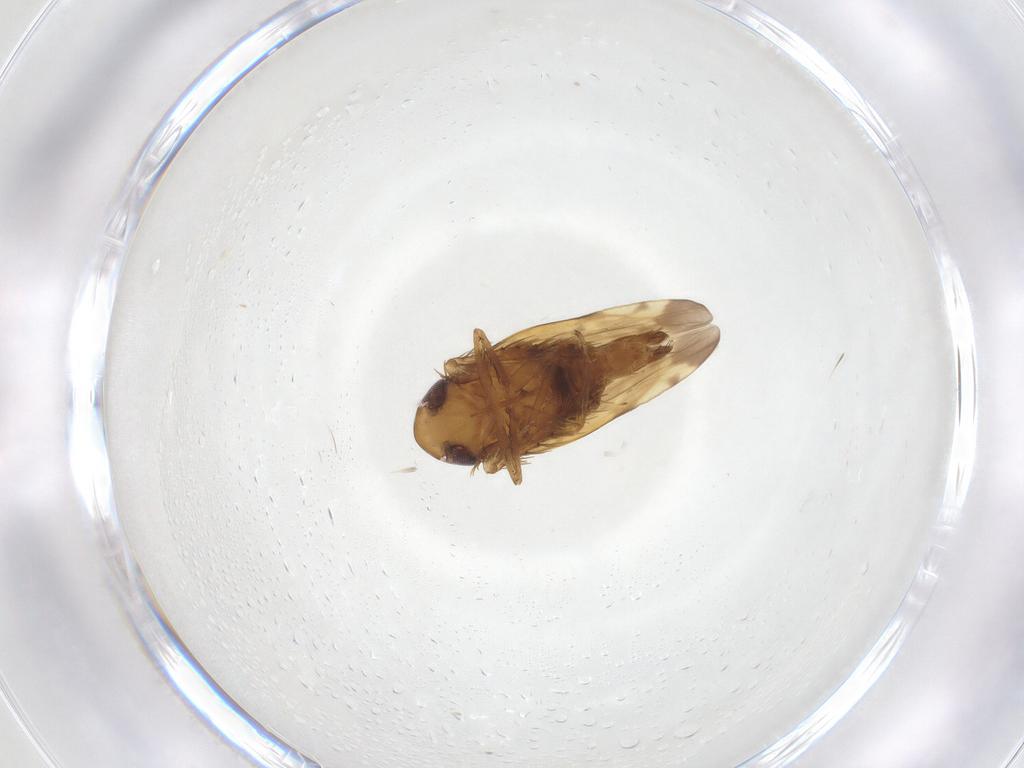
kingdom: Animalia
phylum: Arthropoda
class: Insecta
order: Hemiptera
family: Cicadellidae
